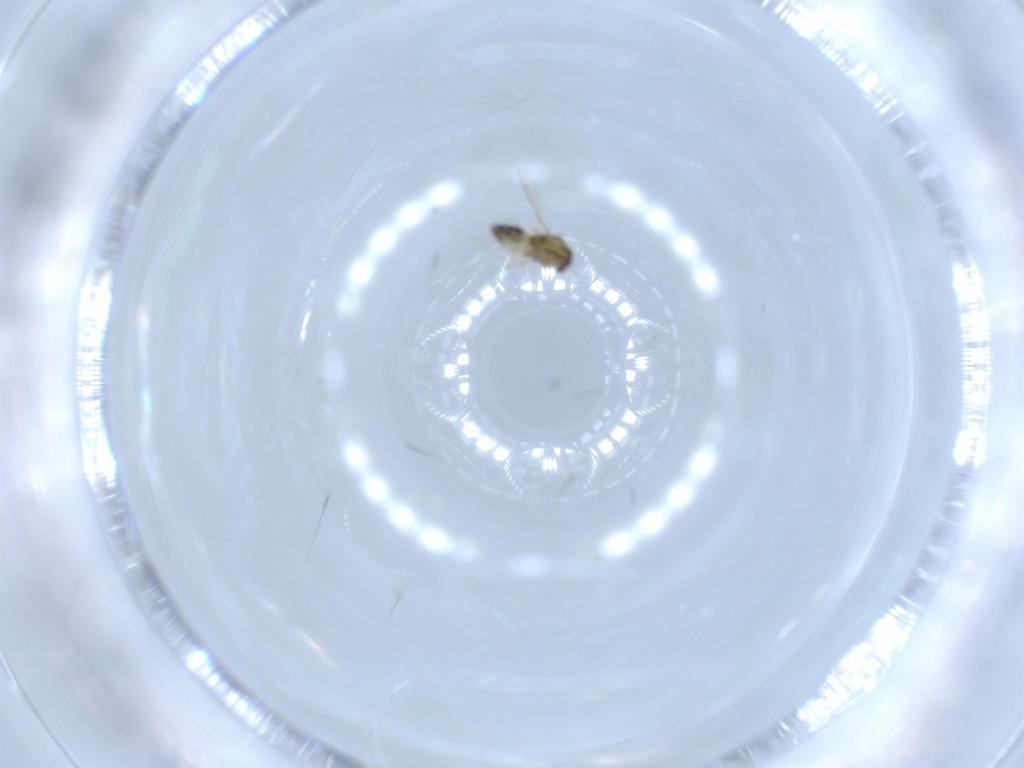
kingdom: Animalia
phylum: Arthropoda
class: Insecta
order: Diptera
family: Chironomidae
